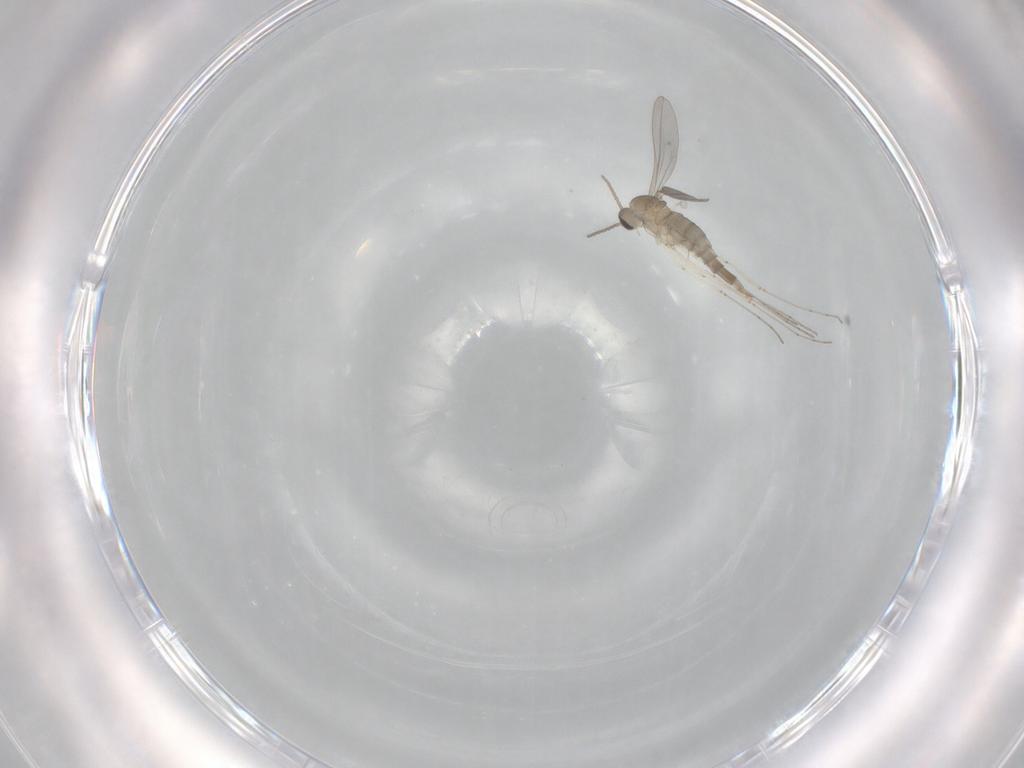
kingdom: Animalia
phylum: Arthropoda
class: Insecta
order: Diptera
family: Cecidomyiidae
